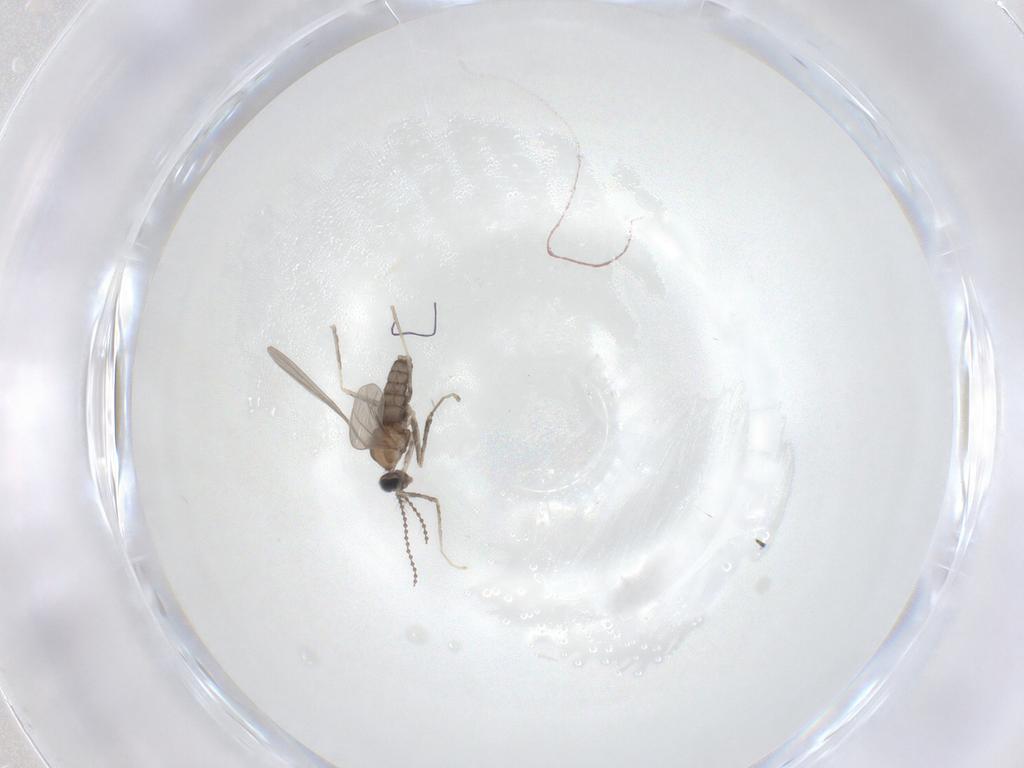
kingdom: Animalia
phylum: Arthropoda
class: Insecta
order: Diptera
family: Cecidomyiidae
